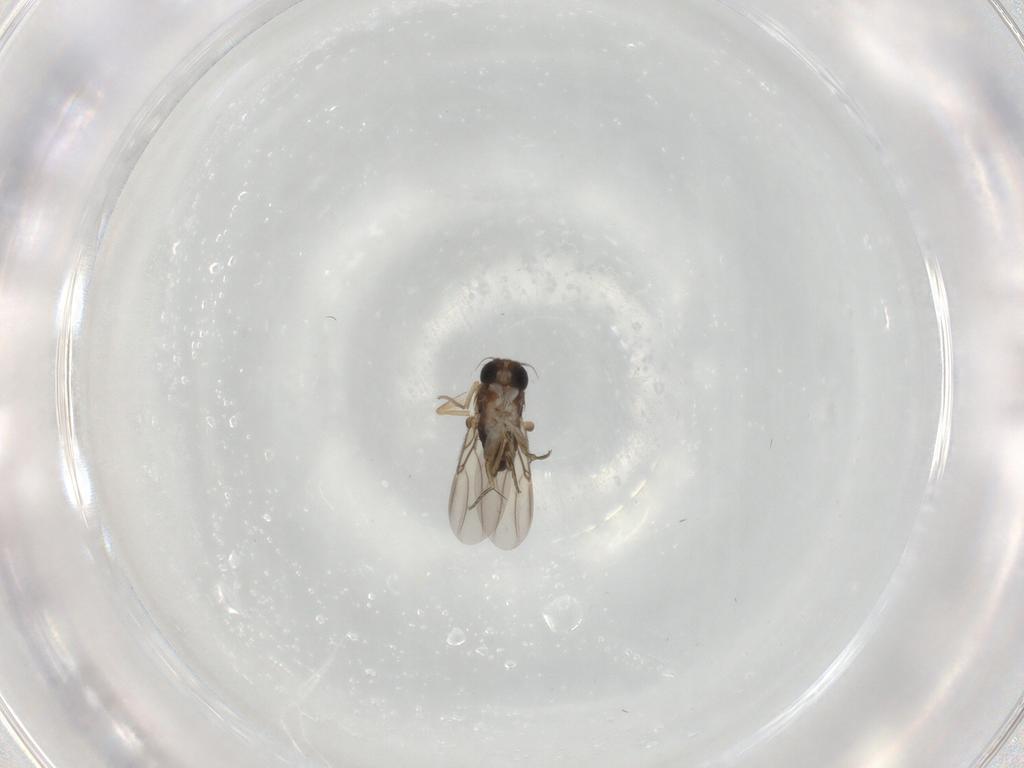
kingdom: Animalia
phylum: Arthropoda
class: Insecta
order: Diptera
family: Phoridae
